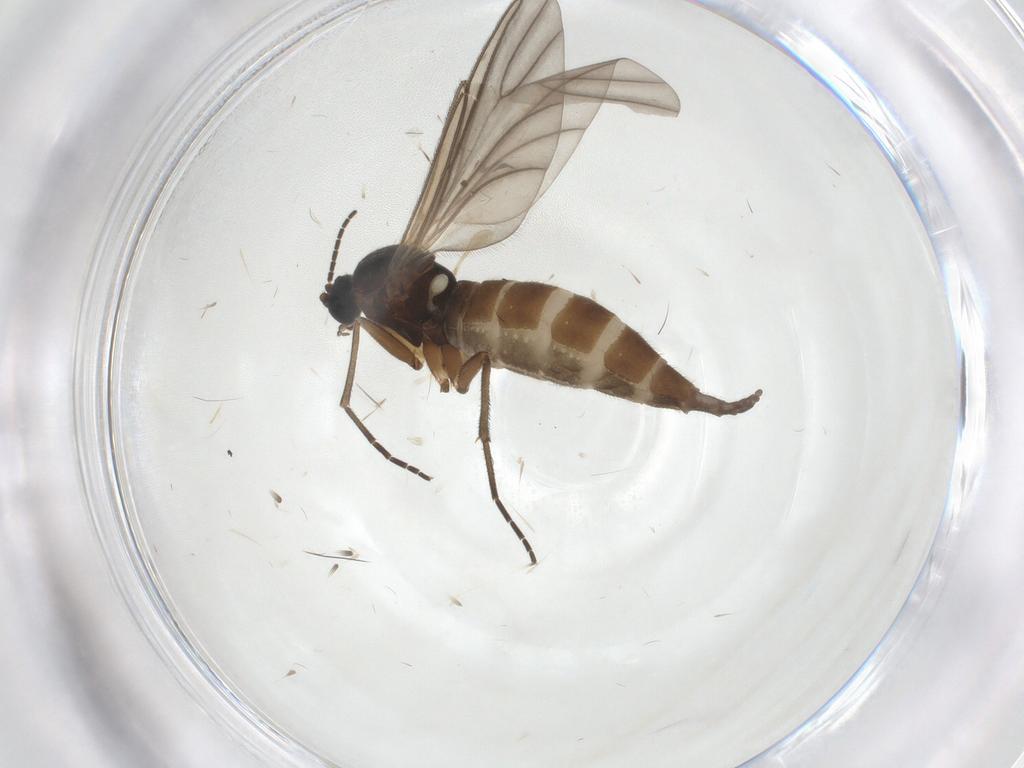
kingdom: Animalia
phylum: Arthropoda
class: Insecta
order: Diptera
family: Sciaridae
